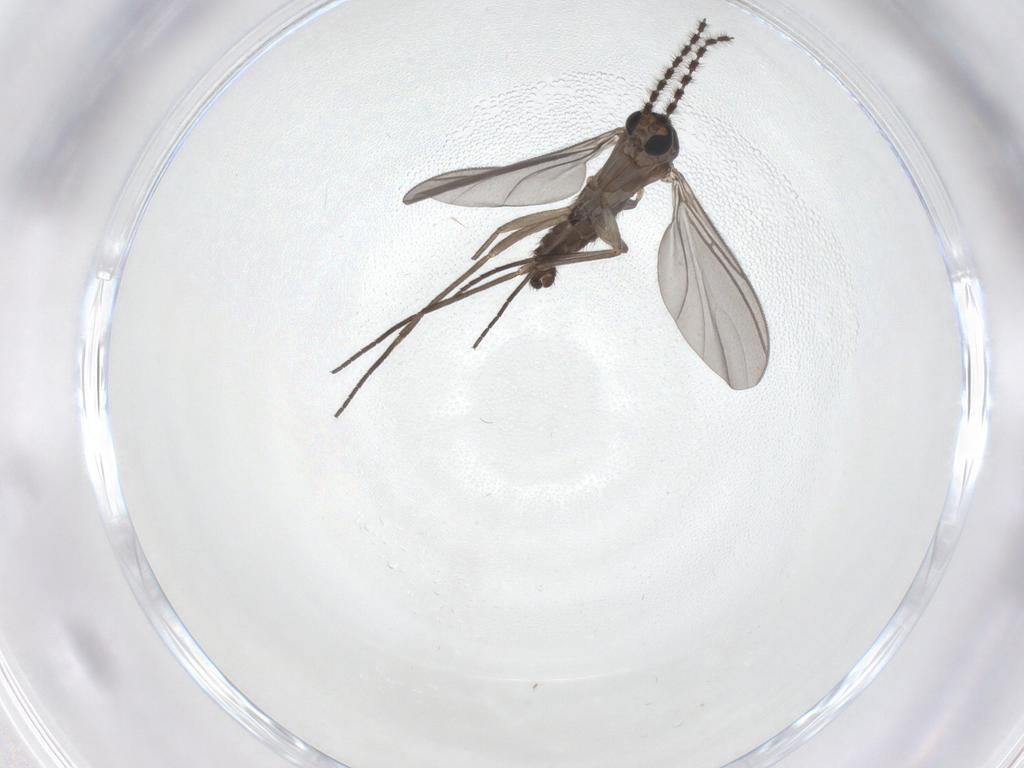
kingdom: Animalia
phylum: Arthropoda
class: Insecta
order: Diptera
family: Sciaridae
